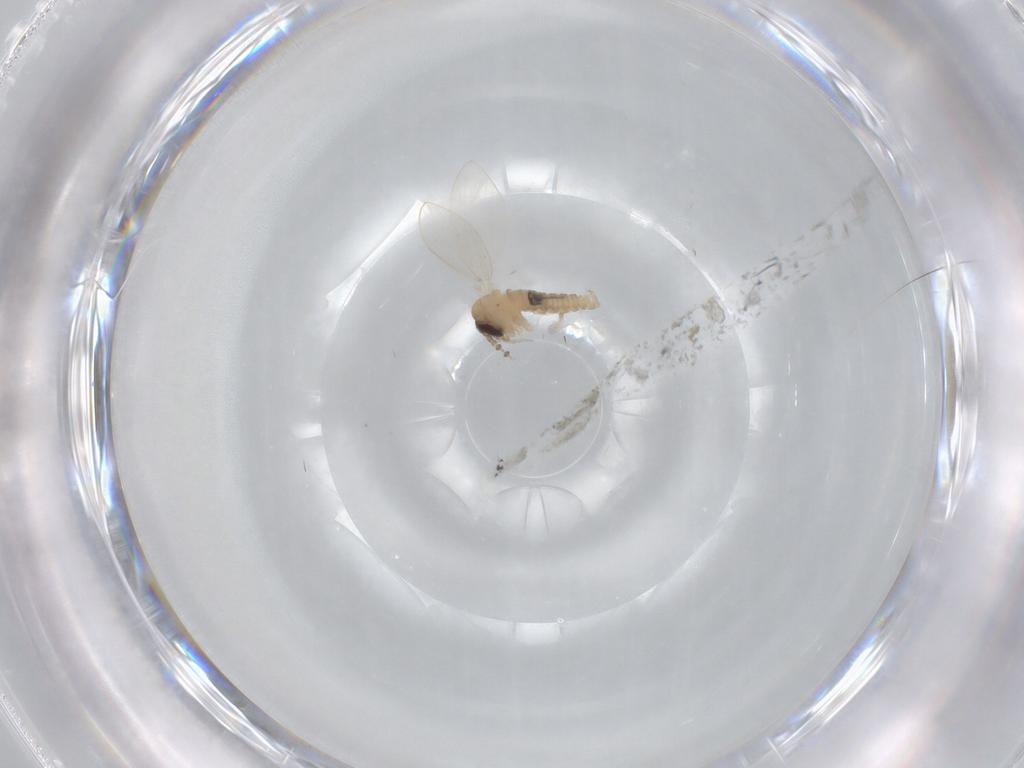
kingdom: Animalia
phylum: Arthropoda
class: Insecta
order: Diptera
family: Psychodidae
